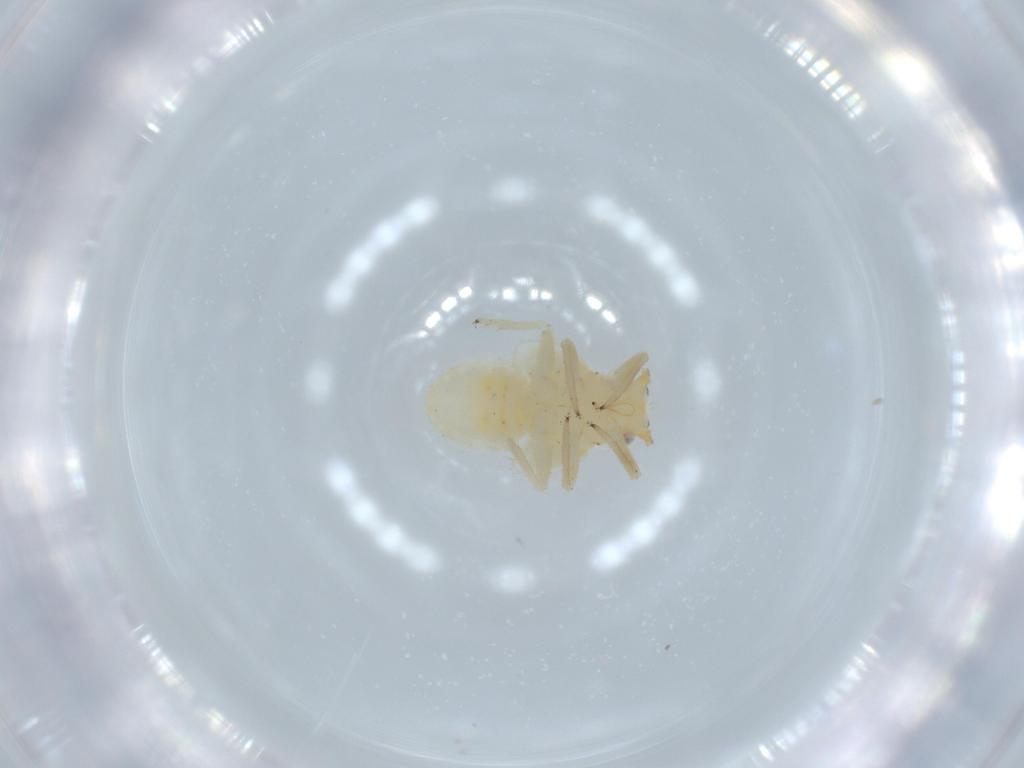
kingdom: Animalia
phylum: Arthropoda
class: Insecta
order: Hemiptera
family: Psyllidae
